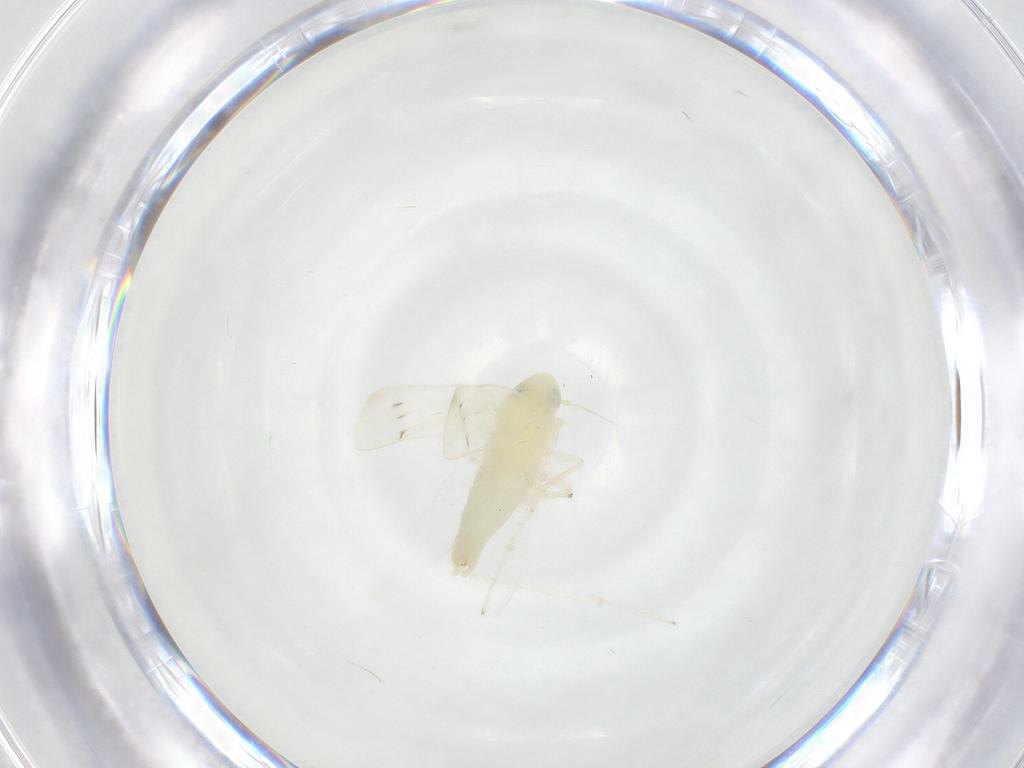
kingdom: Animalia
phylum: Arthropoda
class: Insecta
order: Hemiptera
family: Cicadellidae
